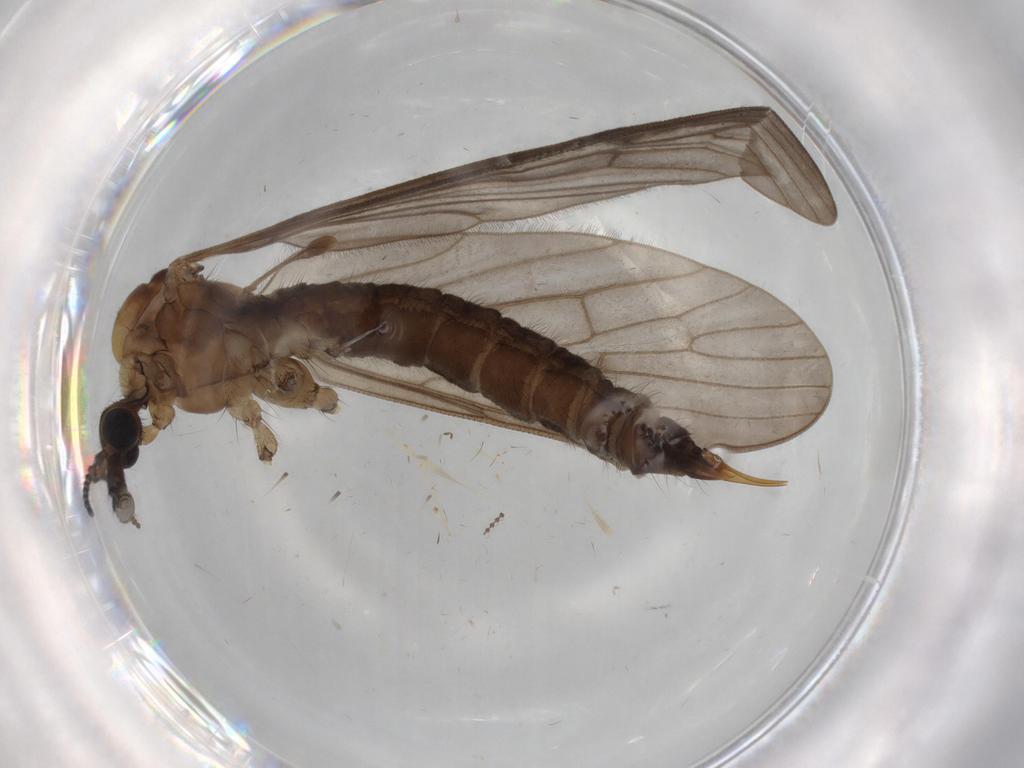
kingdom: Animalia
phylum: Arthropoda
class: Insecta
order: Diptera
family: Limoniidae
